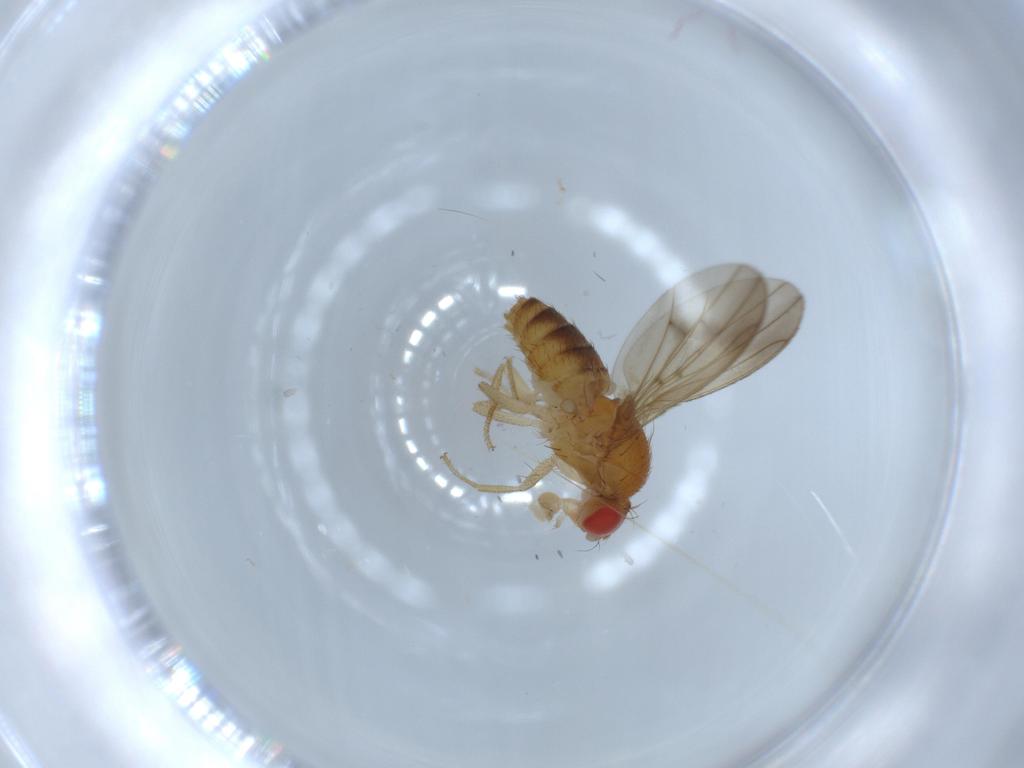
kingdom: Animalia
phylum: Arthropoda
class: Insecta
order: Diptera
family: Drosophilidae
